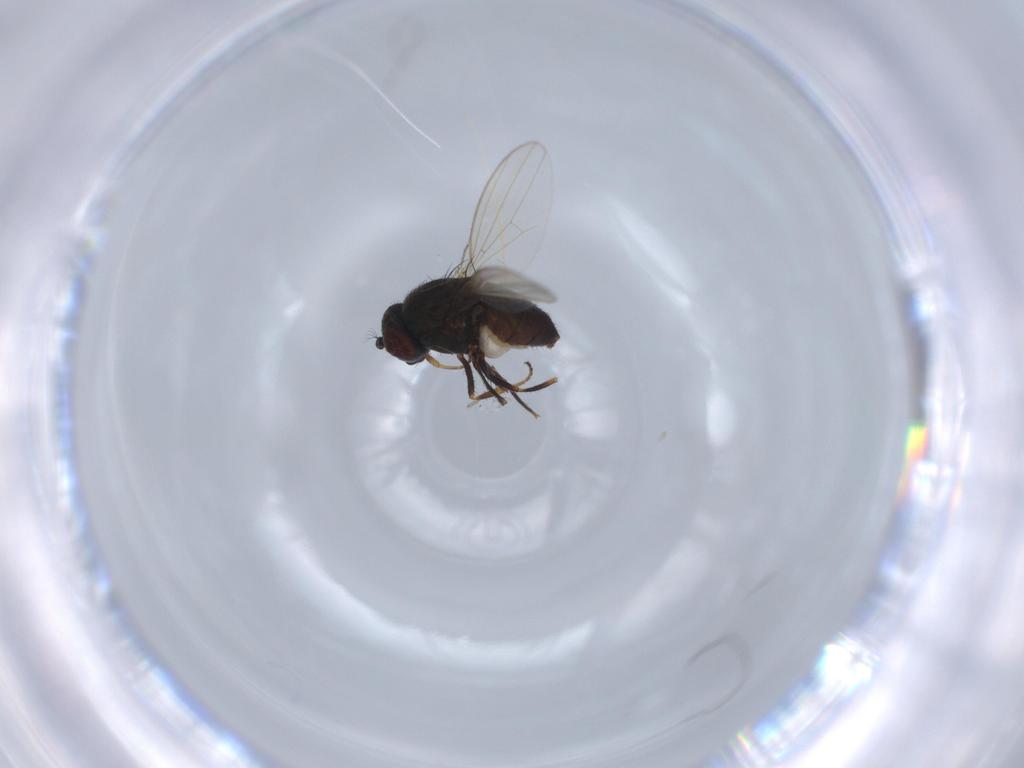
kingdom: Animalia
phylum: Arthropoda
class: Insecta
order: Diptera
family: Ephydridae
